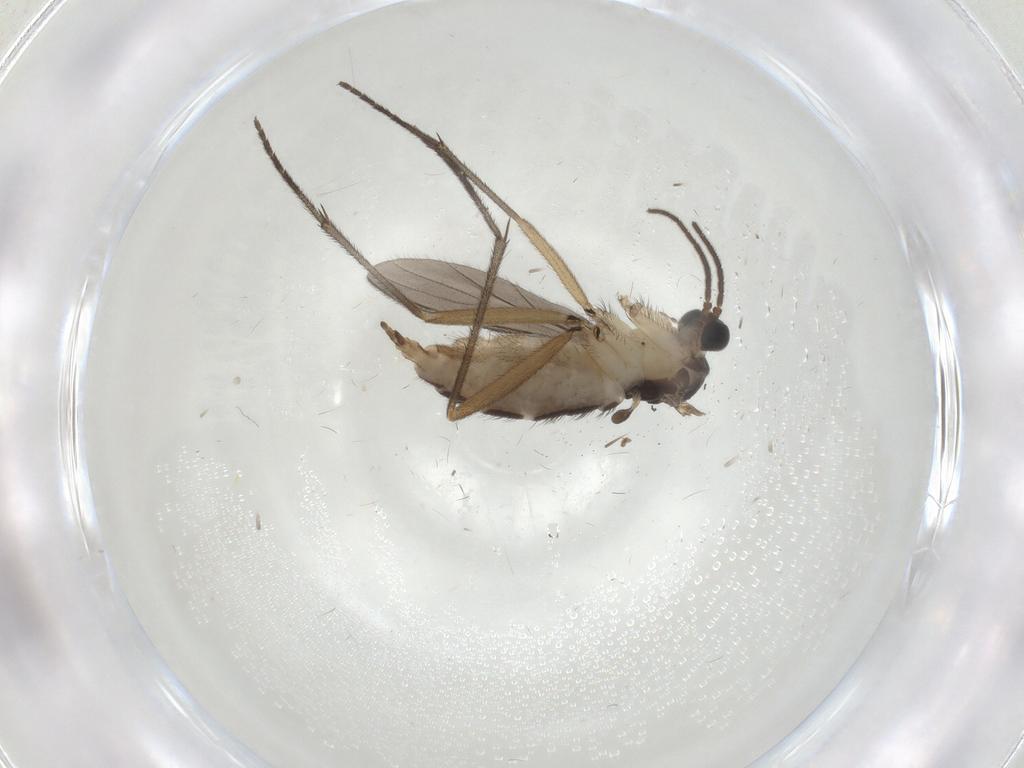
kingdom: Animalia
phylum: Arthropoda
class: Insecta
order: Diptera
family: Sciaridae
